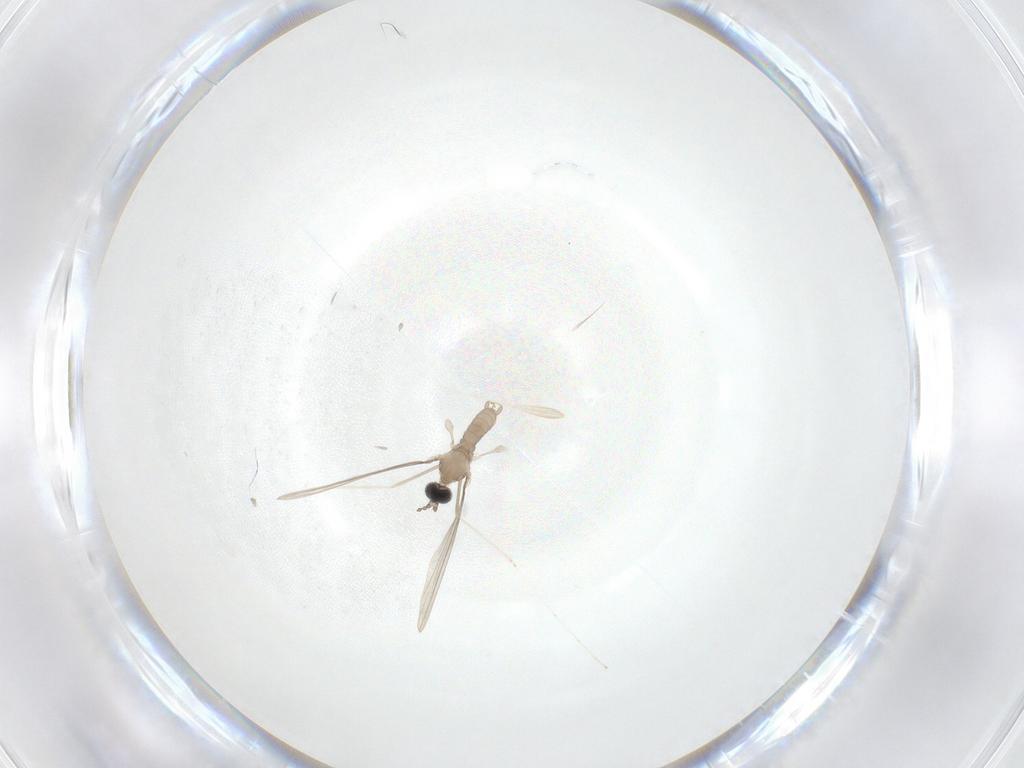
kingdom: Animalia
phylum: Arthropoda
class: Insecta
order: Diptera
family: Limoniidae
